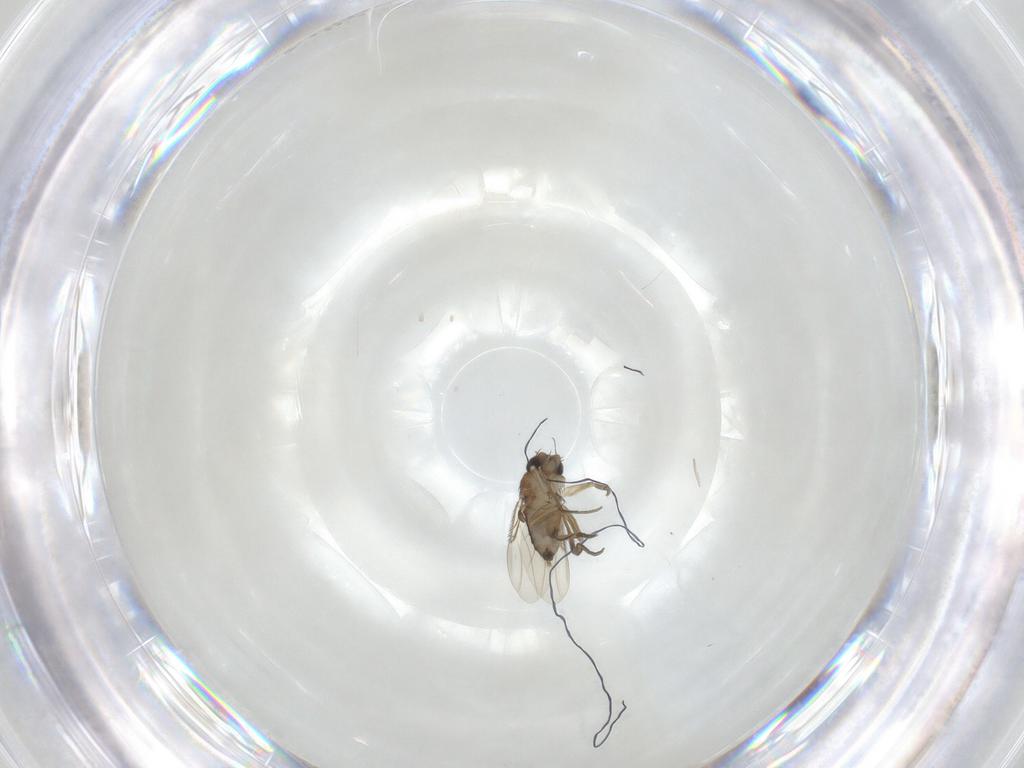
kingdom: Animalia
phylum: Arthropoda
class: Insecta
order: Diptera
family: Phoridae
